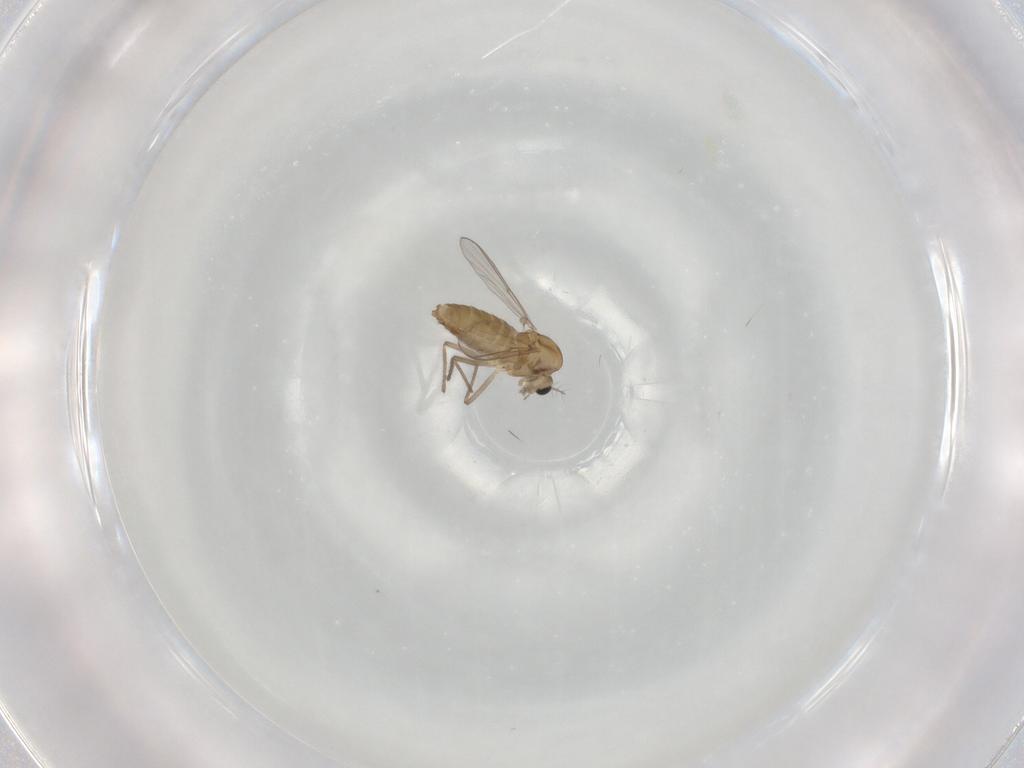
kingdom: Animalia
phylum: Arthropoda
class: Insecta
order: Diptera
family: Chironomidae
